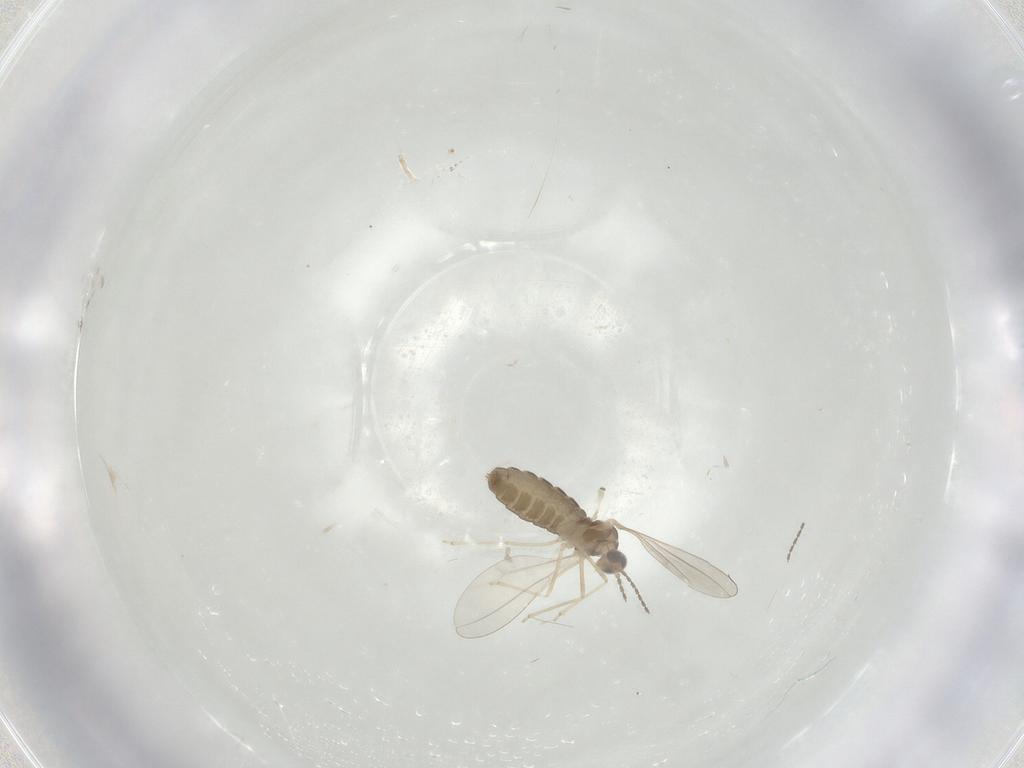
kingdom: Animalia
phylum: Arthropoda
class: Insecta
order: Diptera
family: Cecidomyiidae
